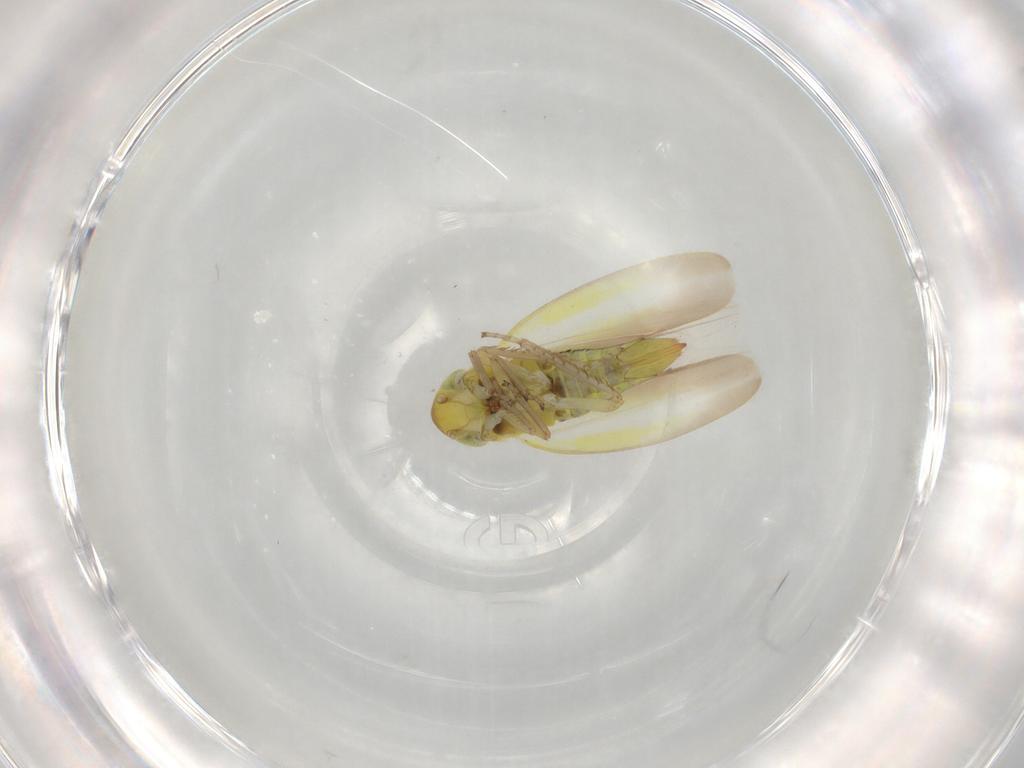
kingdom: Animalia
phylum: Arthropoda
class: Insecta
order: Hemiptera
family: Cicadellidae
